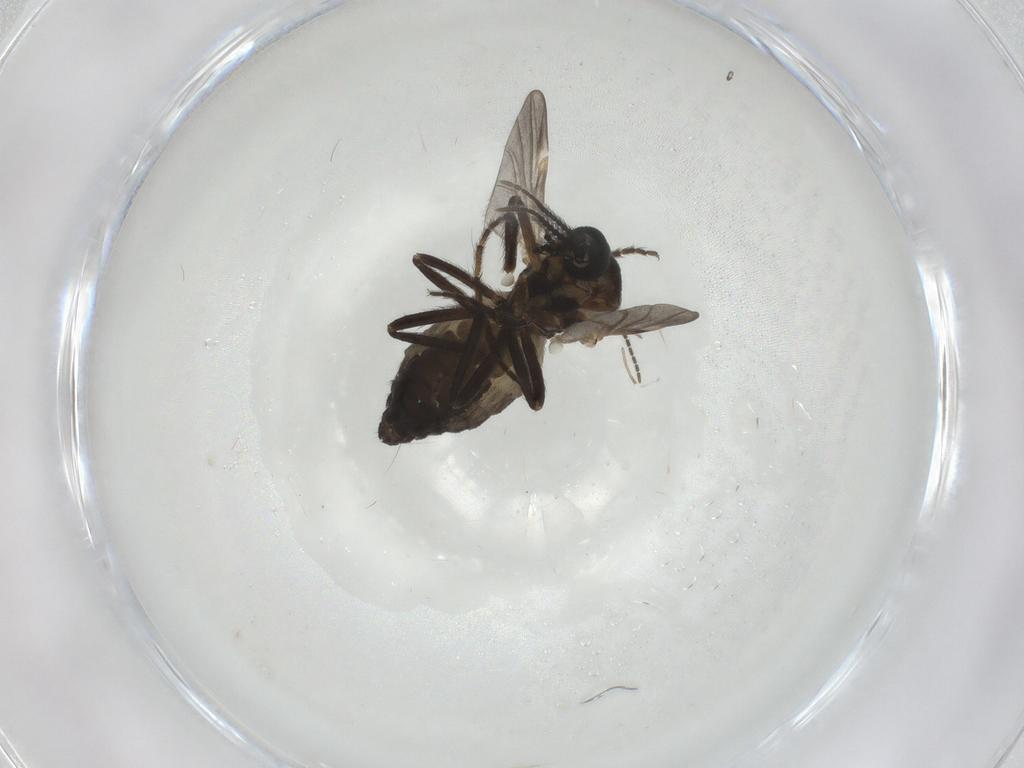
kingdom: Animalia
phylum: Arthropoda
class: Insecta
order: Diptera
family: Ceratopogonidae
